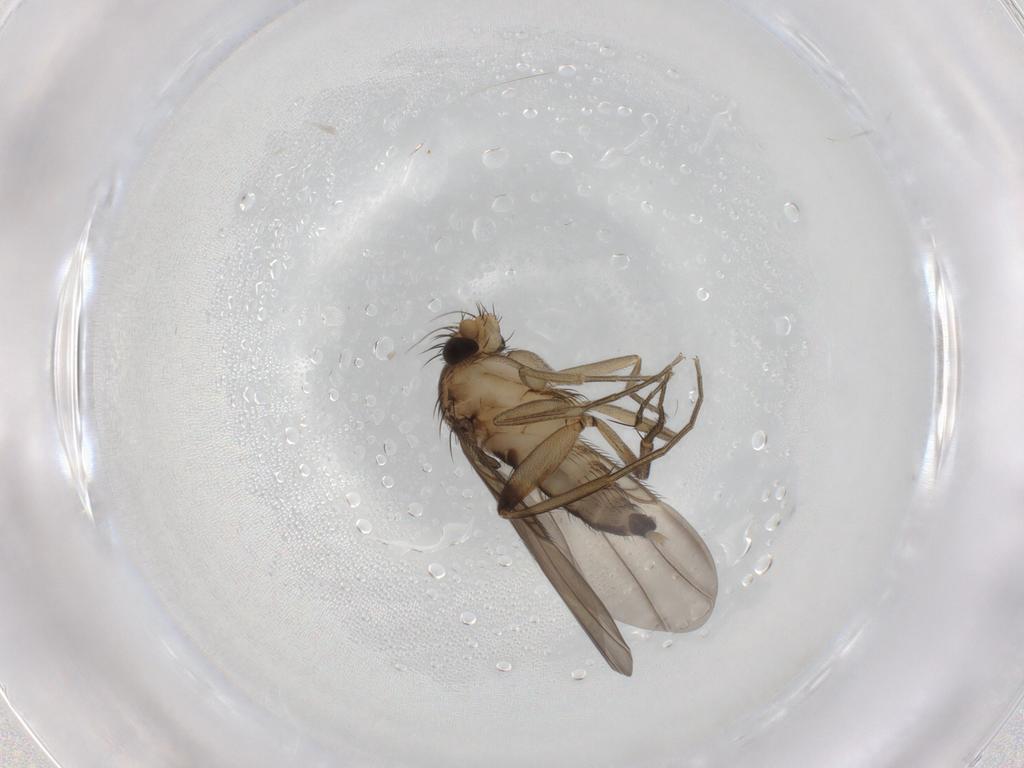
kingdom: Animalia
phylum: Arthropoda
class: Insecta
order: Diptera
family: Phoridae
